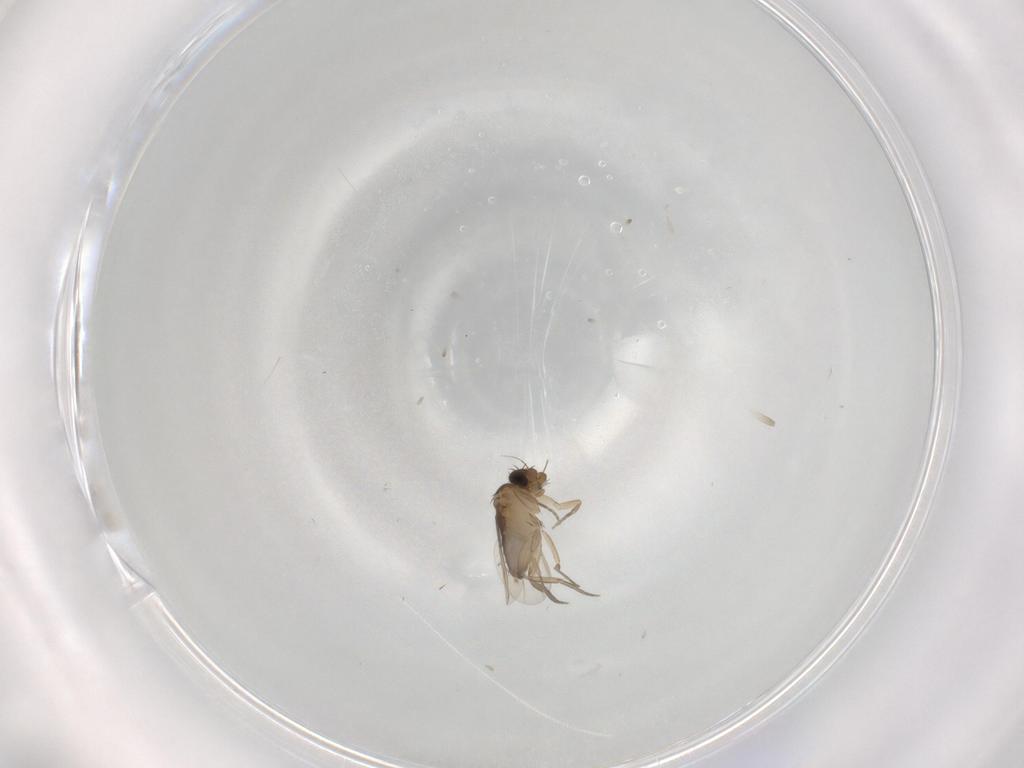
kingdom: Animalia
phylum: Arthropoda
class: Insecta
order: Diptera
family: Phoridae
